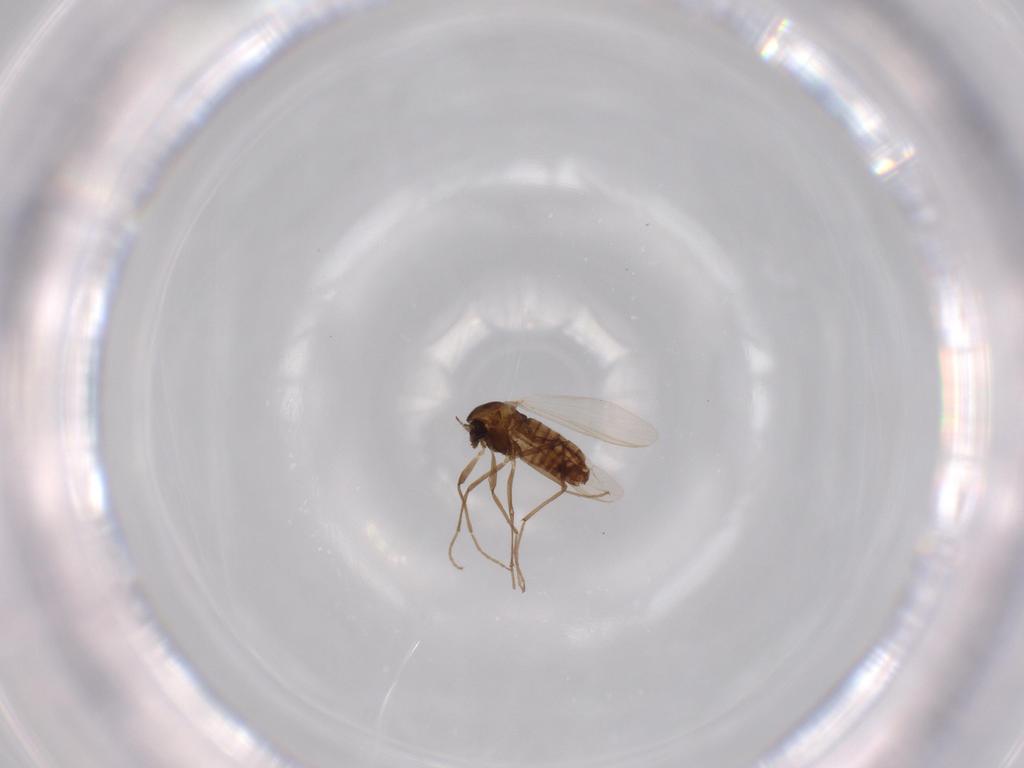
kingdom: Animalia
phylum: Arthropoda
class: Insecta
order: Diptera
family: Chironomidae
